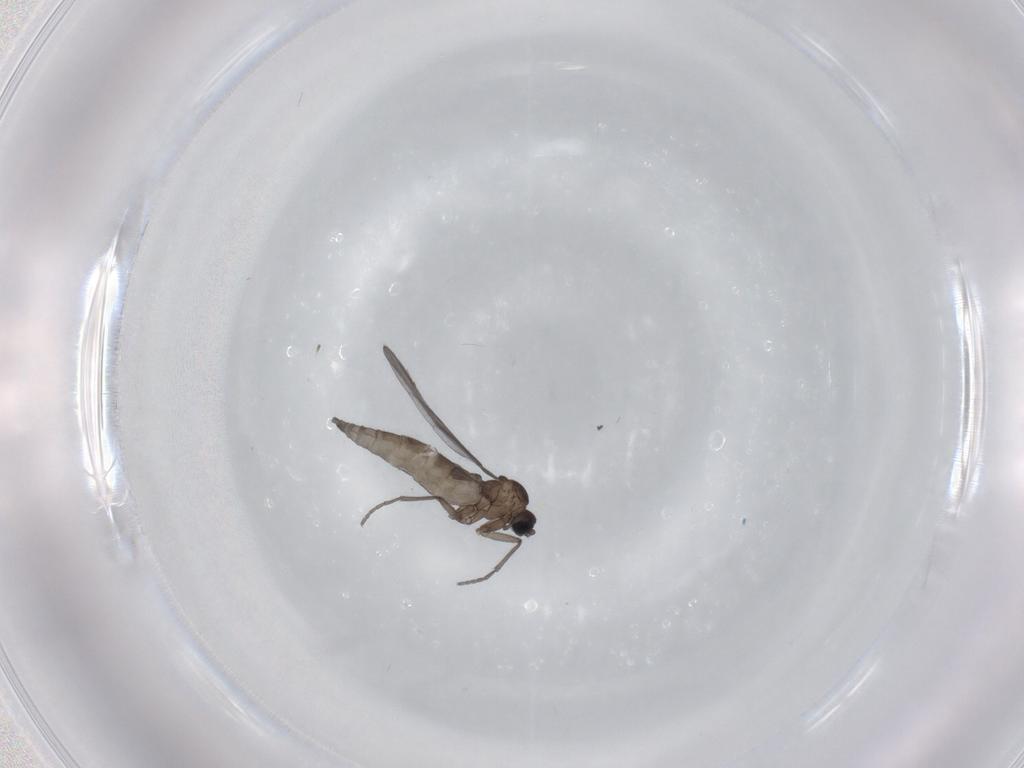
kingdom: Animalia
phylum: Arthropoda
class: Insecta
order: Diptera
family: Sciaridae
